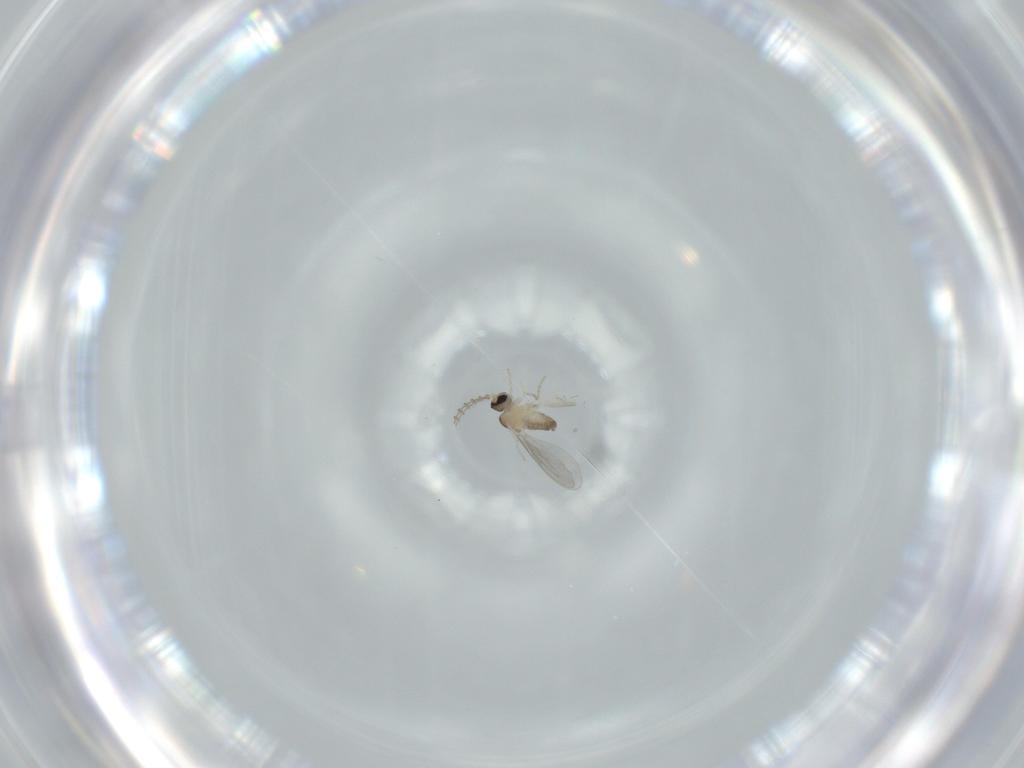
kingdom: Animalia
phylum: Arthropoda
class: Insecta
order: Diptera
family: Cecidomyiidae
